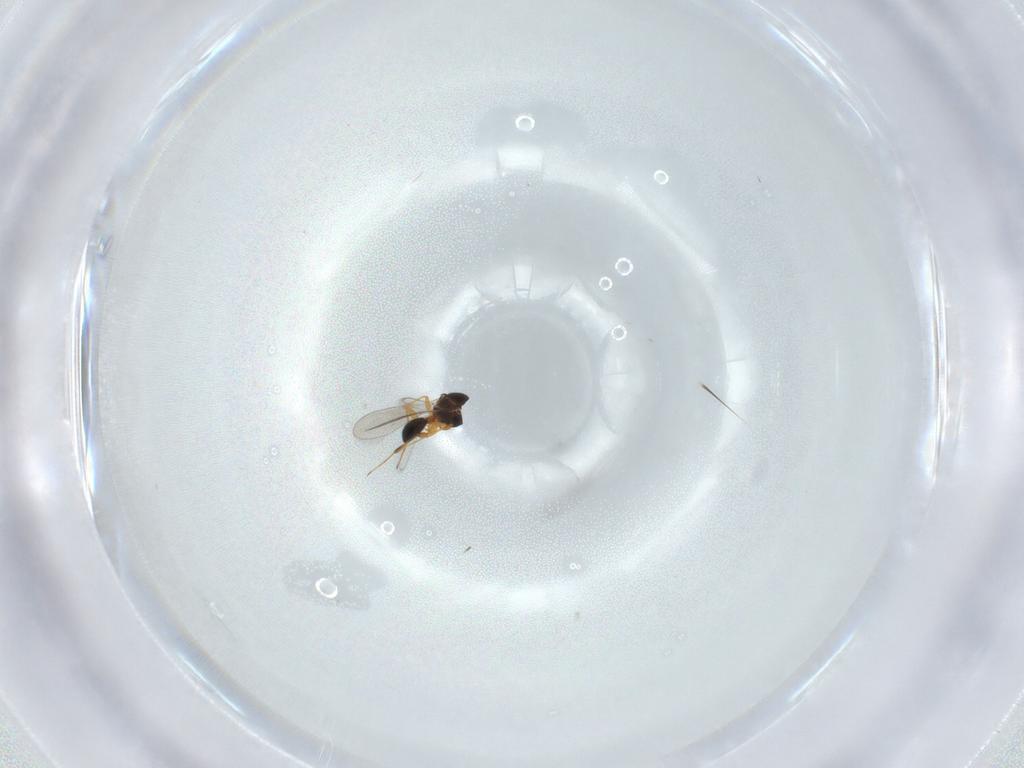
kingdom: Animalia
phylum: Arthropoda
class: Insecta
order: Hymenoptera
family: Platygastridae
